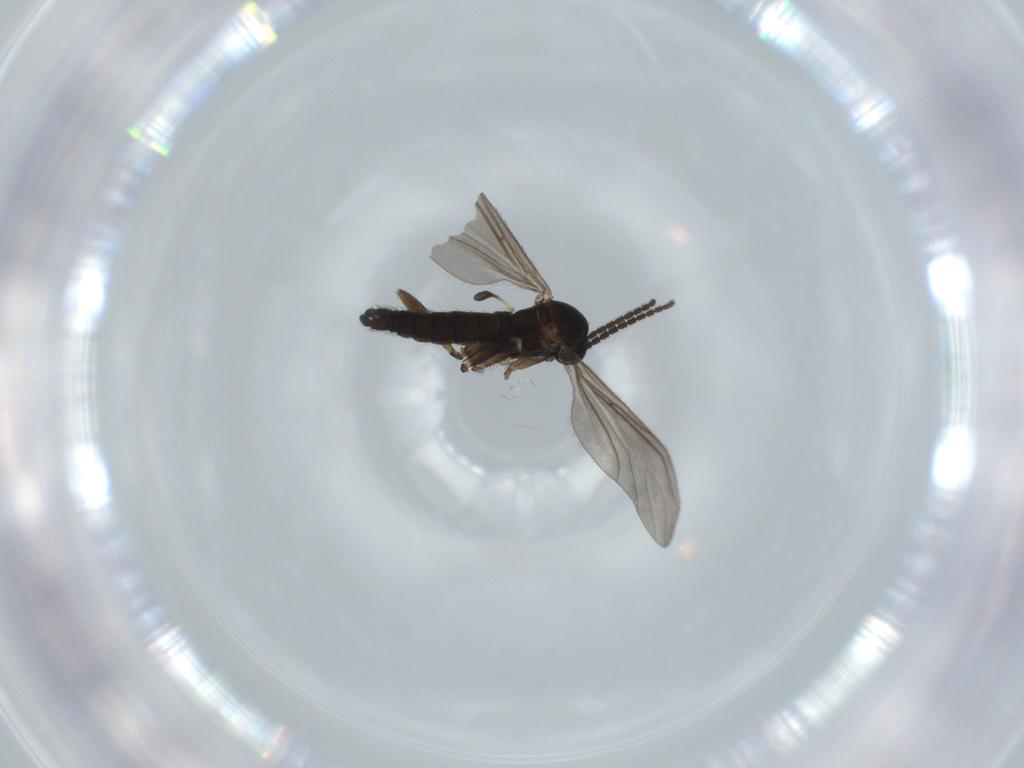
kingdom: Animalia
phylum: Arthropoda
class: Insecta
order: Diptera
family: Sciaridae
